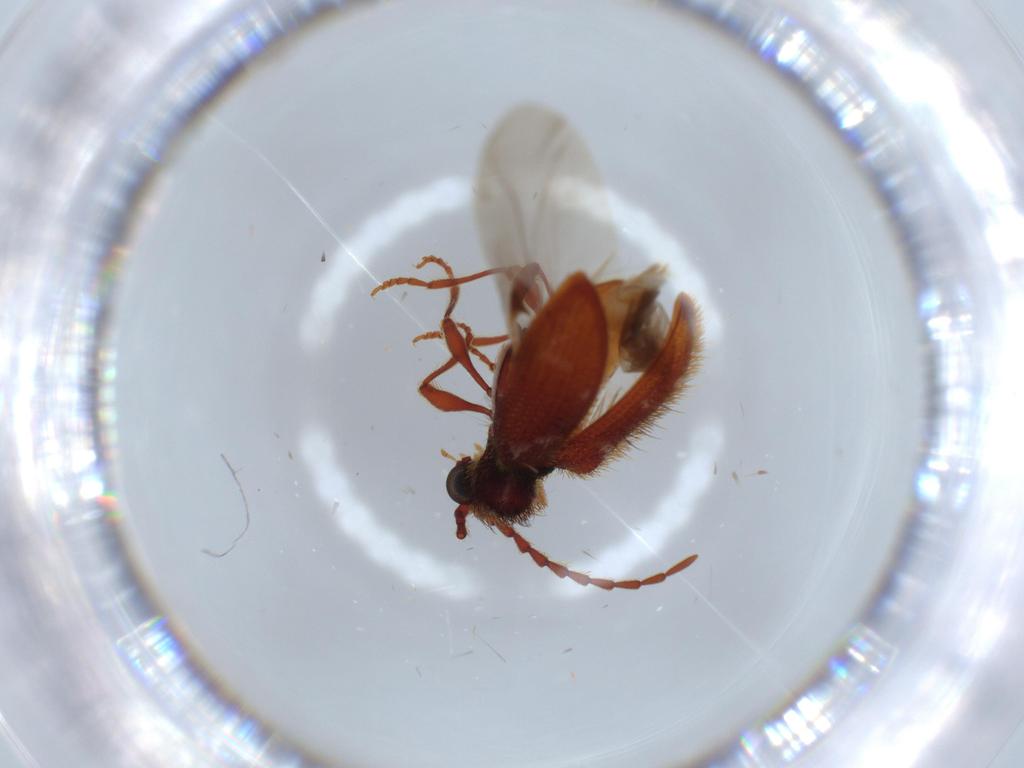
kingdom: Animalia
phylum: Arthropoda
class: Insecta
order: Coleoptera
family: Ptinidae
